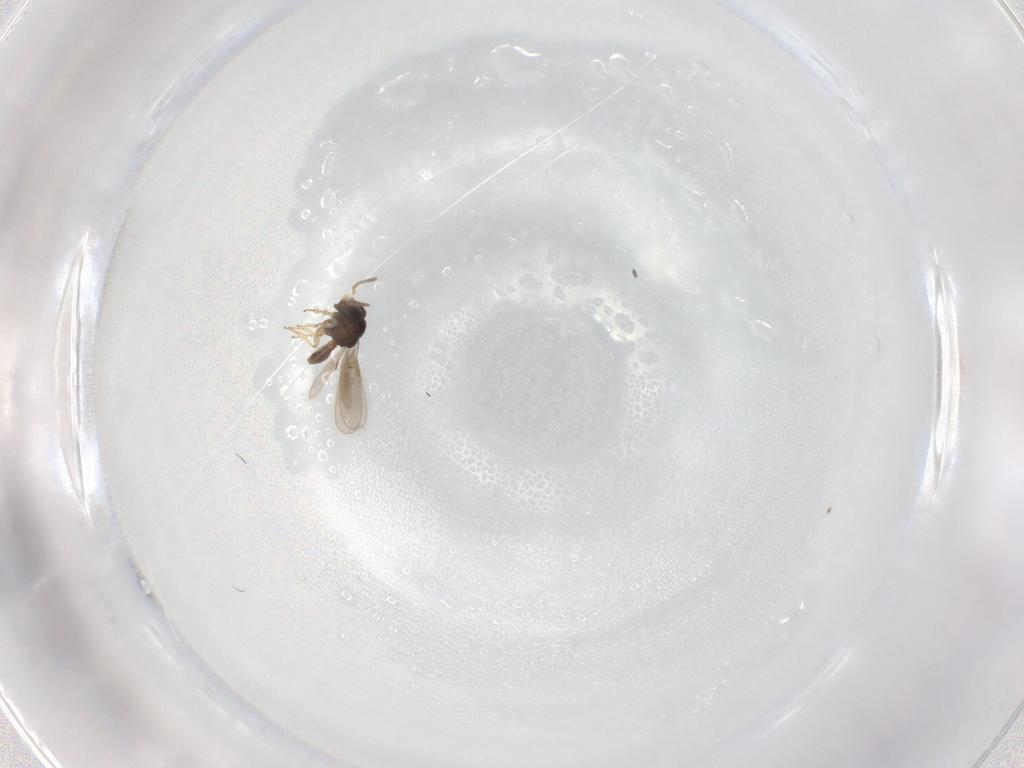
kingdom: Animalia
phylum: Arthropoda
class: Insecta
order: Hymenoptera
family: Scelionidae
